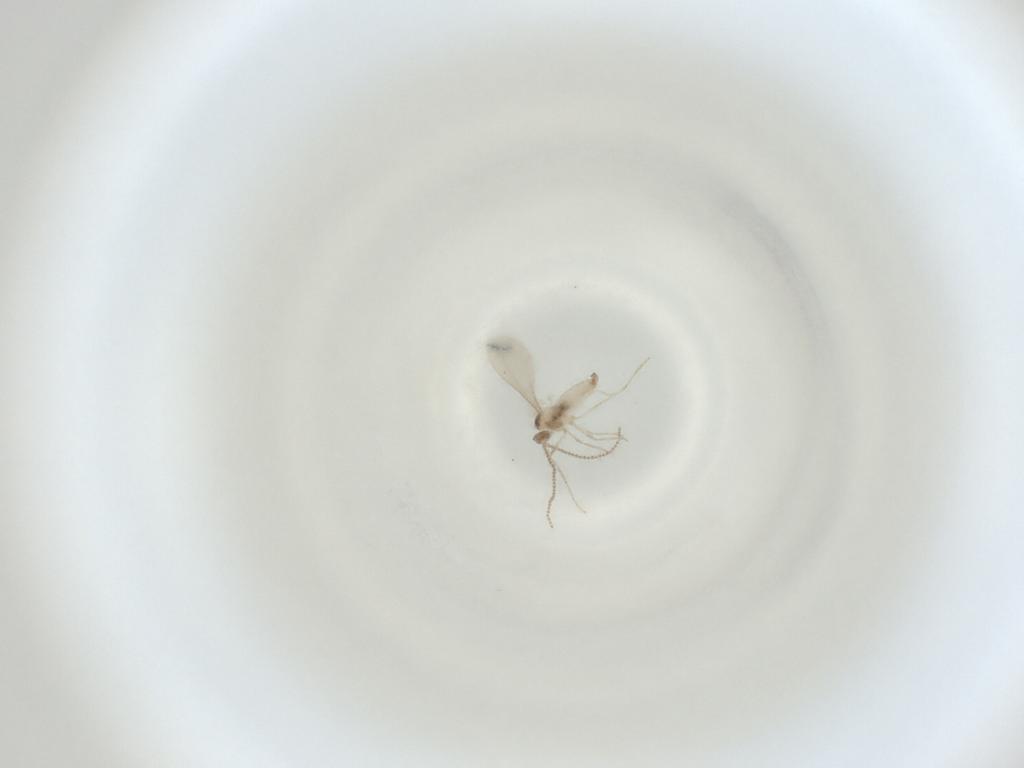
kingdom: Animalia
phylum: Arthropoda
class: Insecta
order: Diptera
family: Cecidomyiidae
